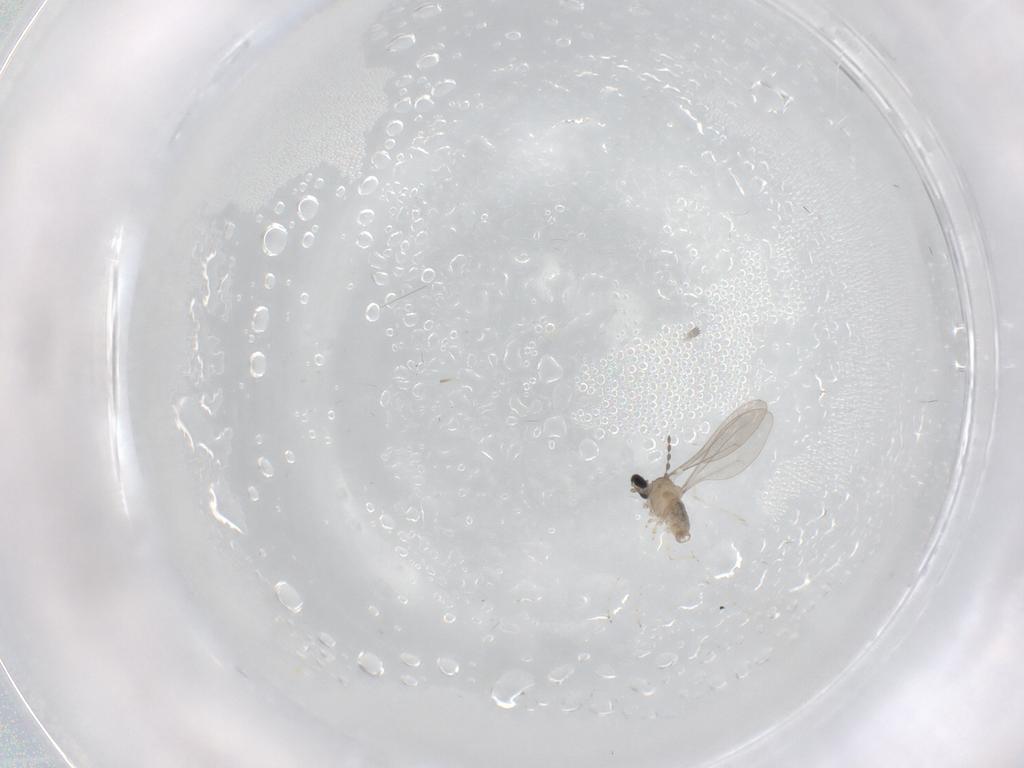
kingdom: Animalia
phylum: Arthropoda
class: Insecta
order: Diptera
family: Cecidomyiidae
